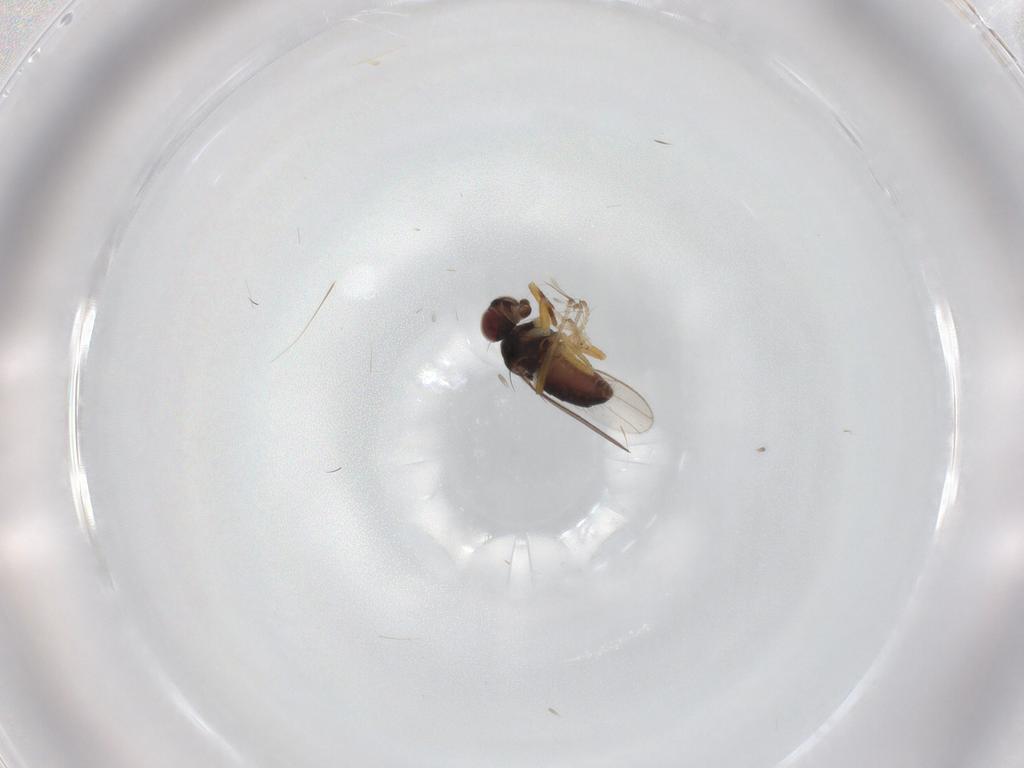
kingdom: Animalia
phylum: Arthropoda
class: Insecta
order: Diptera
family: Ephydridae
